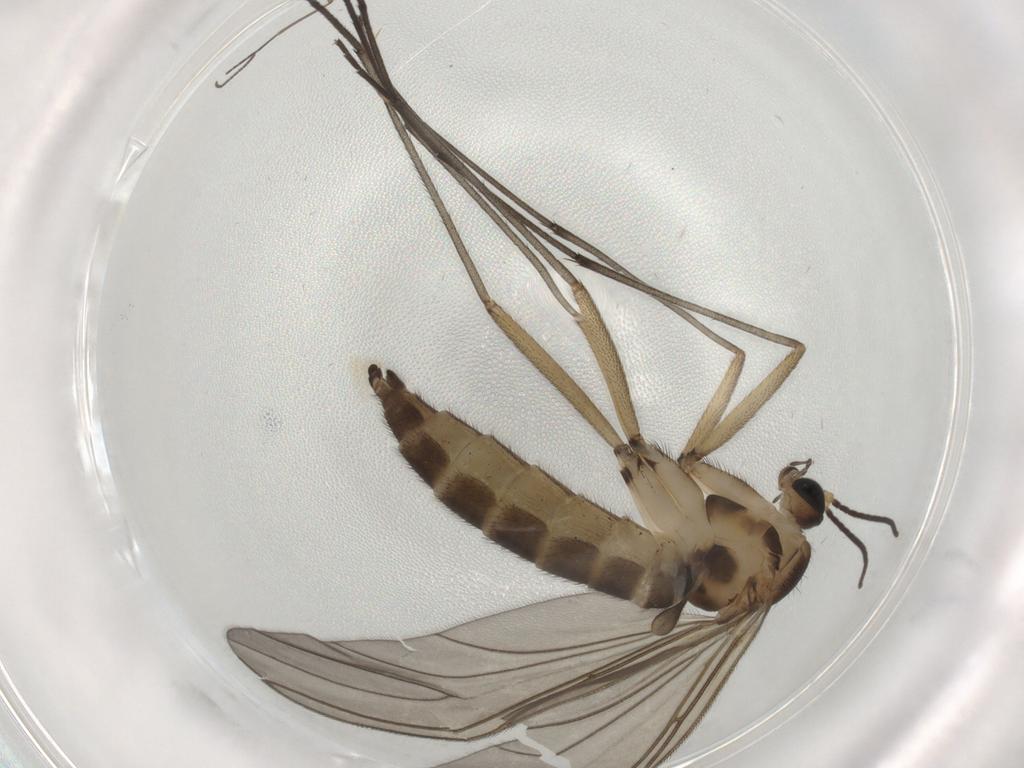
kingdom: Animalia
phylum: Arthropoda
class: Insecta
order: Diptera
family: Sciaridae
